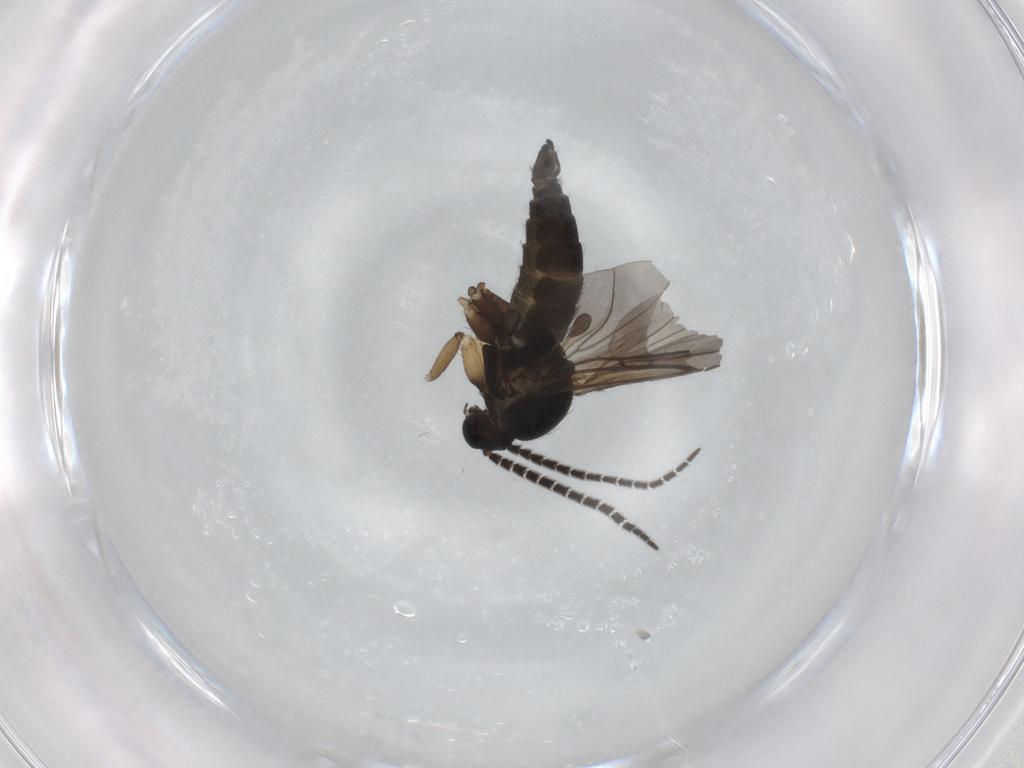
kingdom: Animalia
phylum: Arthropoda
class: Insecta
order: Diptera
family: Sciaridae
